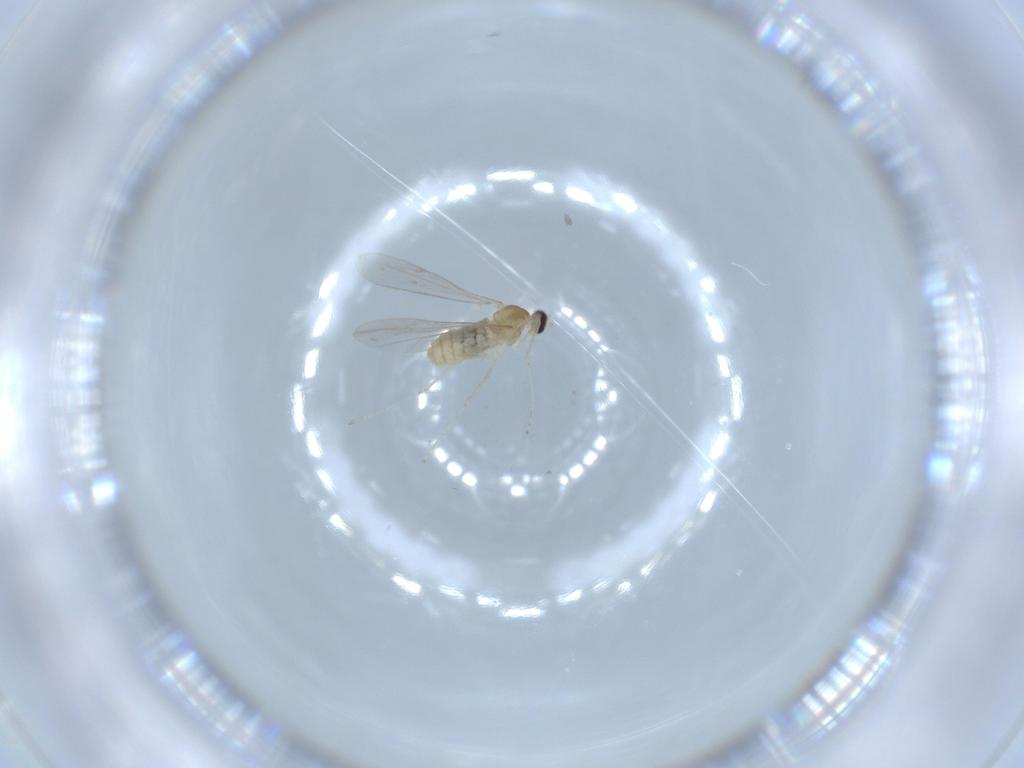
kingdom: Animalia
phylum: Arthropoda
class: Insecta
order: Diptera
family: Cecidomyiidae
